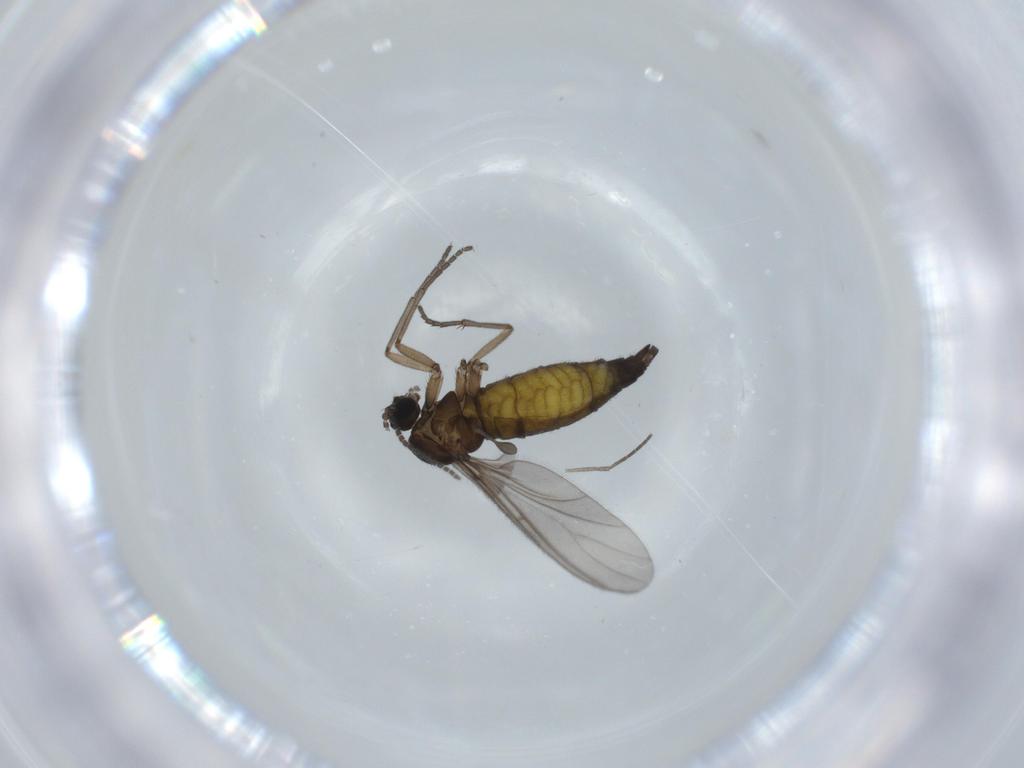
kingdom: Animalia
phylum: Arthropoda
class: Insecta
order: Diptera
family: Sciaridae
